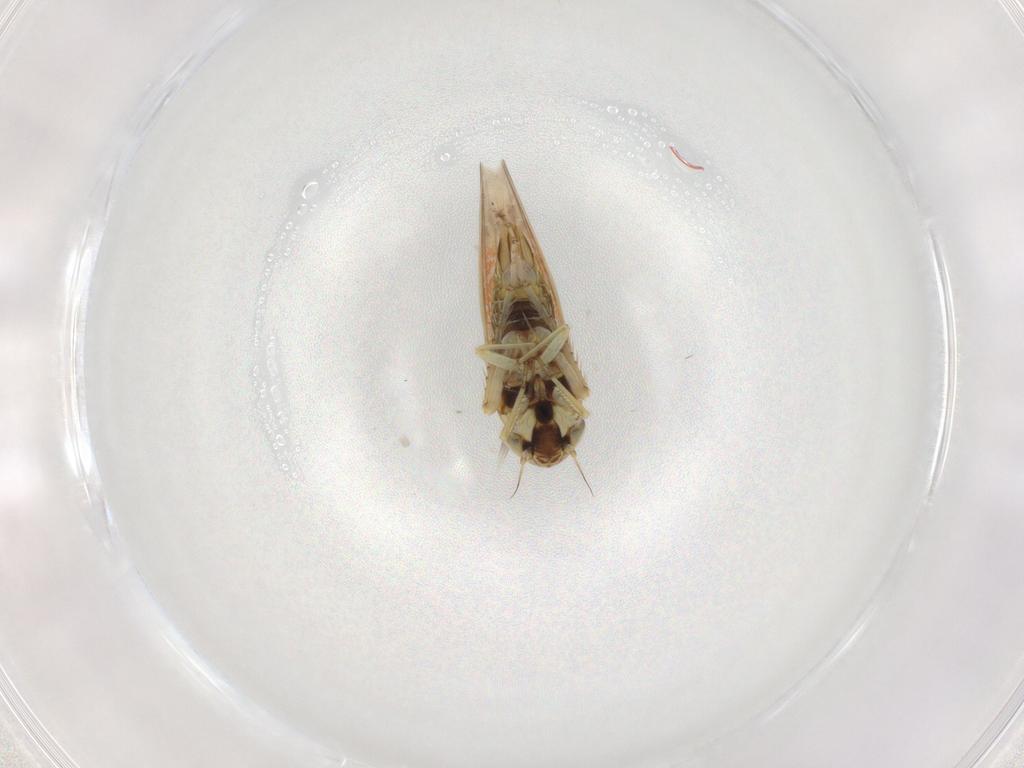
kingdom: Animalia
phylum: Arthropoda
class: Insecta
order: Hemiptera
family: Cicadellidae
